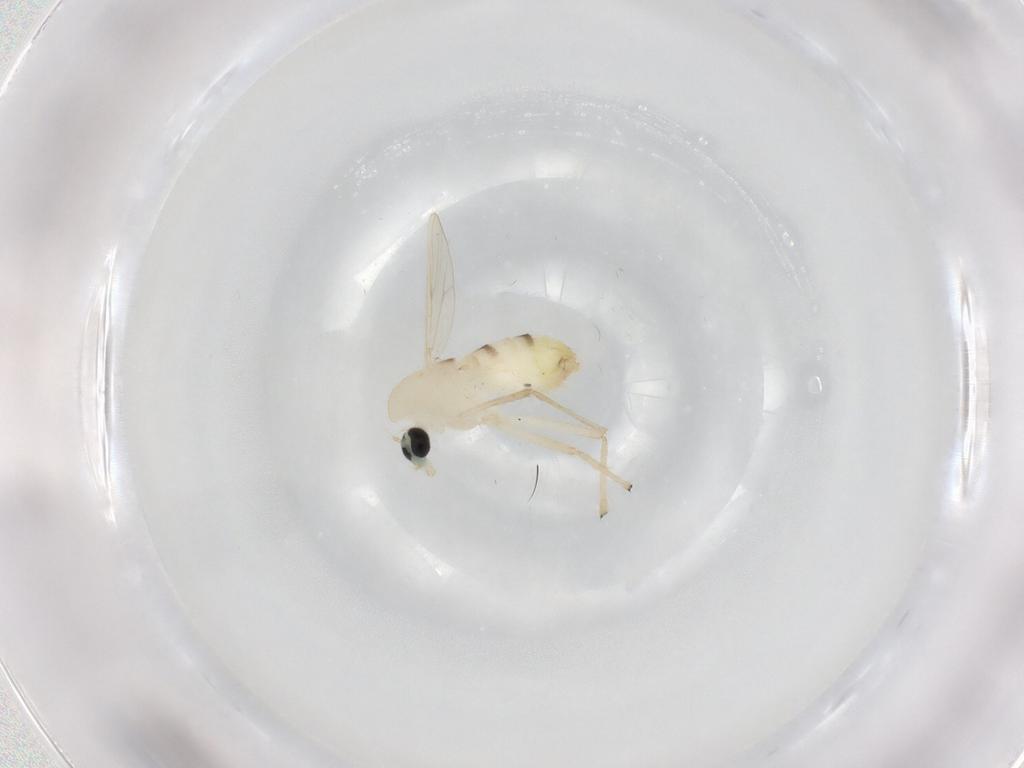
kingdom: Animalia
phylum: Arthropoda
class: Insecta
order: Diptera
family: Chironomidae
